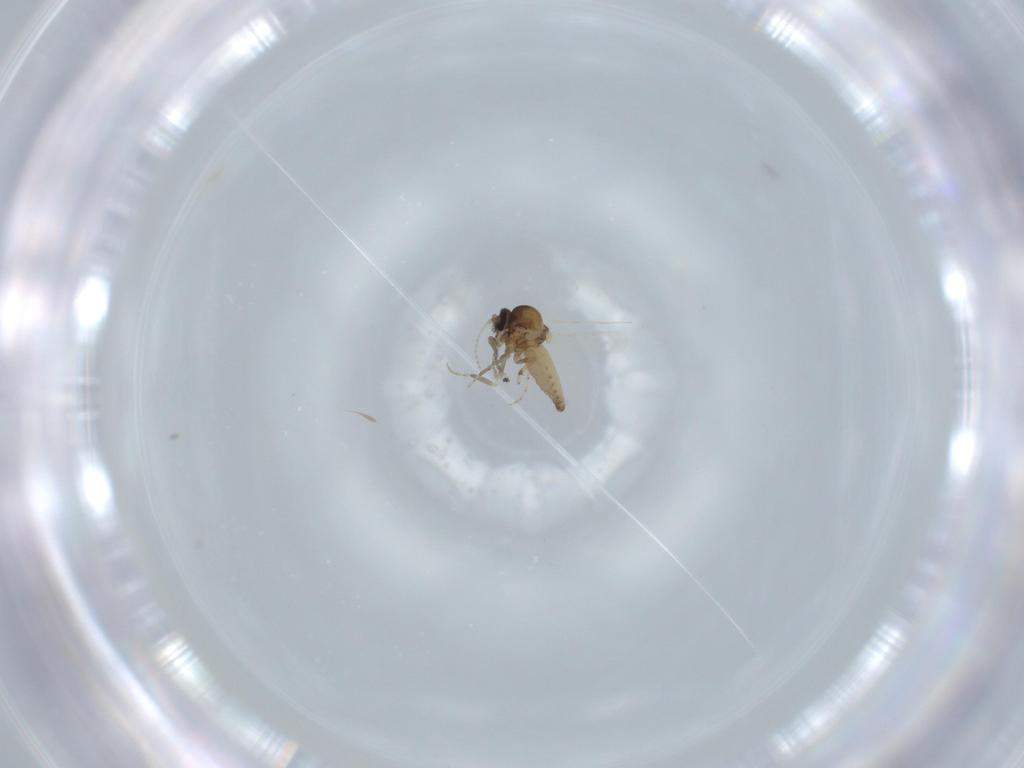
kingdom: Animalia
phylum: Arthropoda
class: Insecta
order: Diptera
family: Ceratopogonidae
